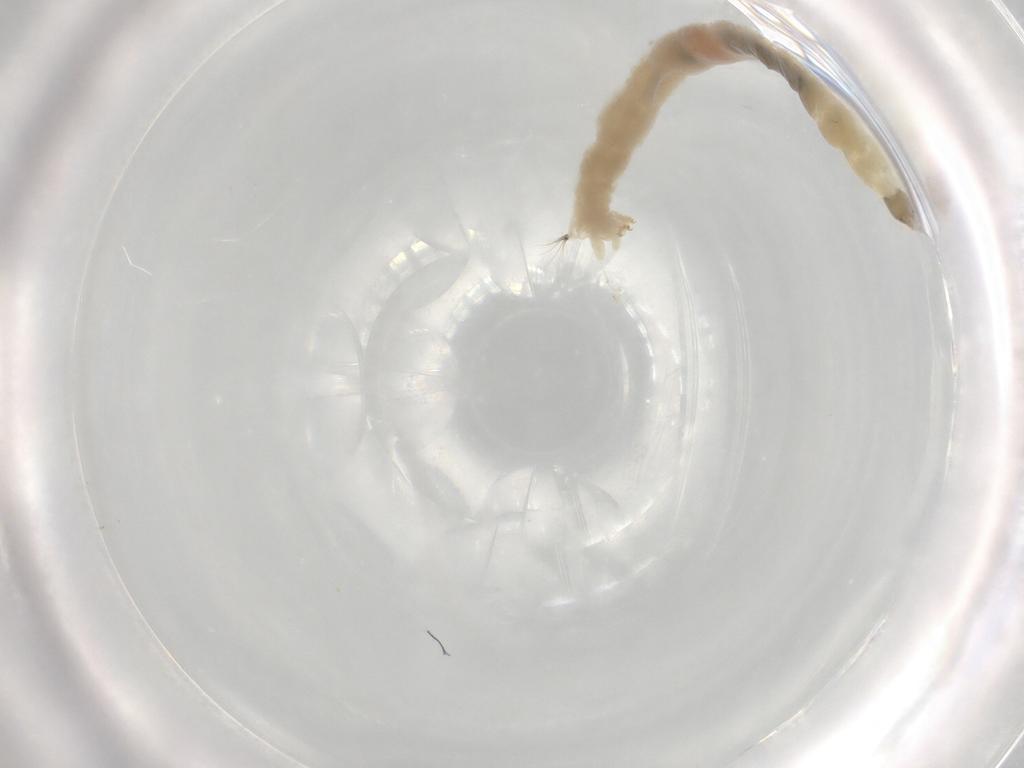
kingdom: Animalia
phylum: Arthropoda
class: Insecta
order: Diptera
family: Chironomidae
